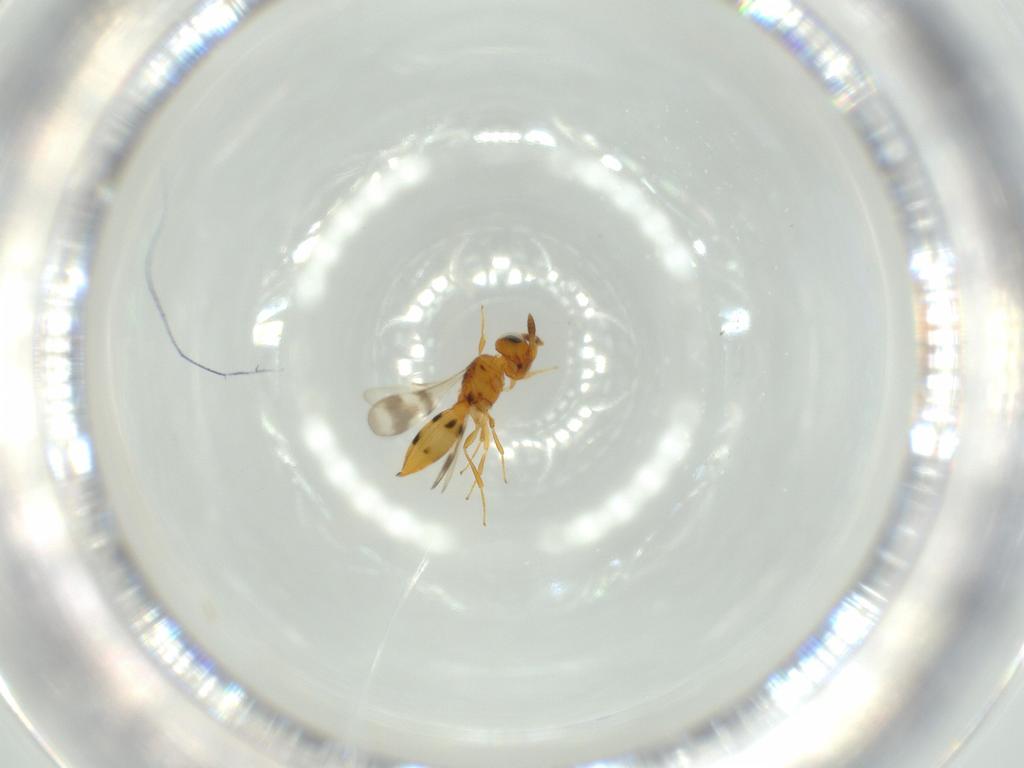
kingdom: Animalia
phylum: Arthropoda
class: Insecta
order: Hymenoptera
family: Scelionidae
